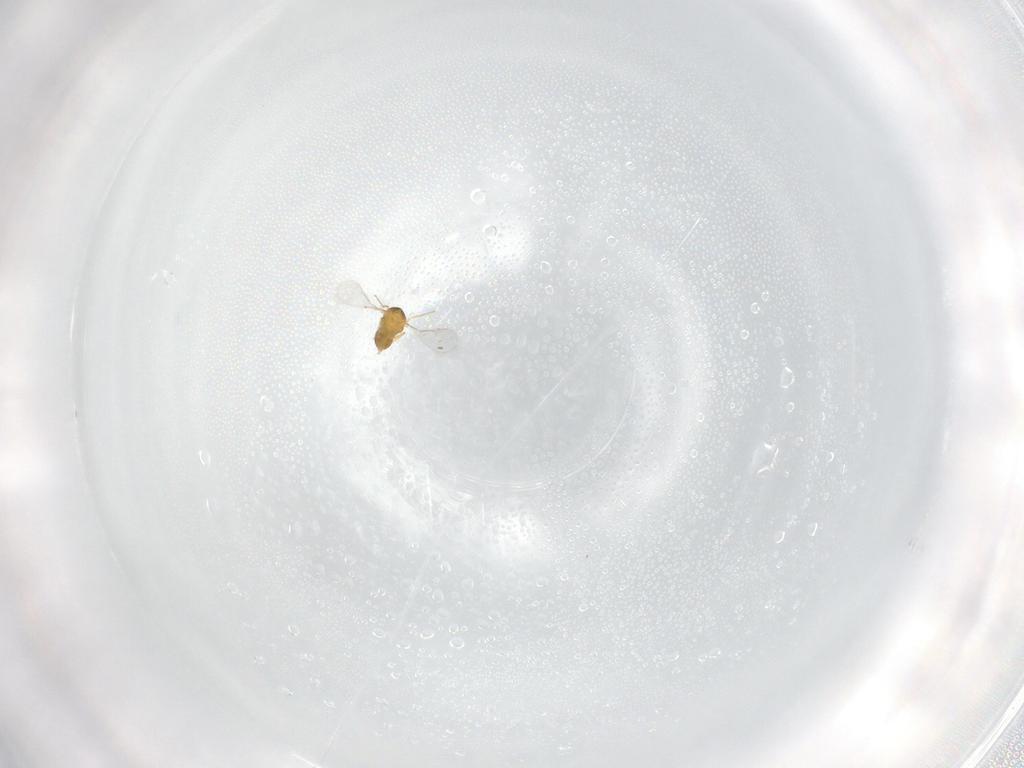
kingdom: Animalia
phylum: Arthropoda
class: Insecta
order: Hymenoptera
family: Aphelinidae
